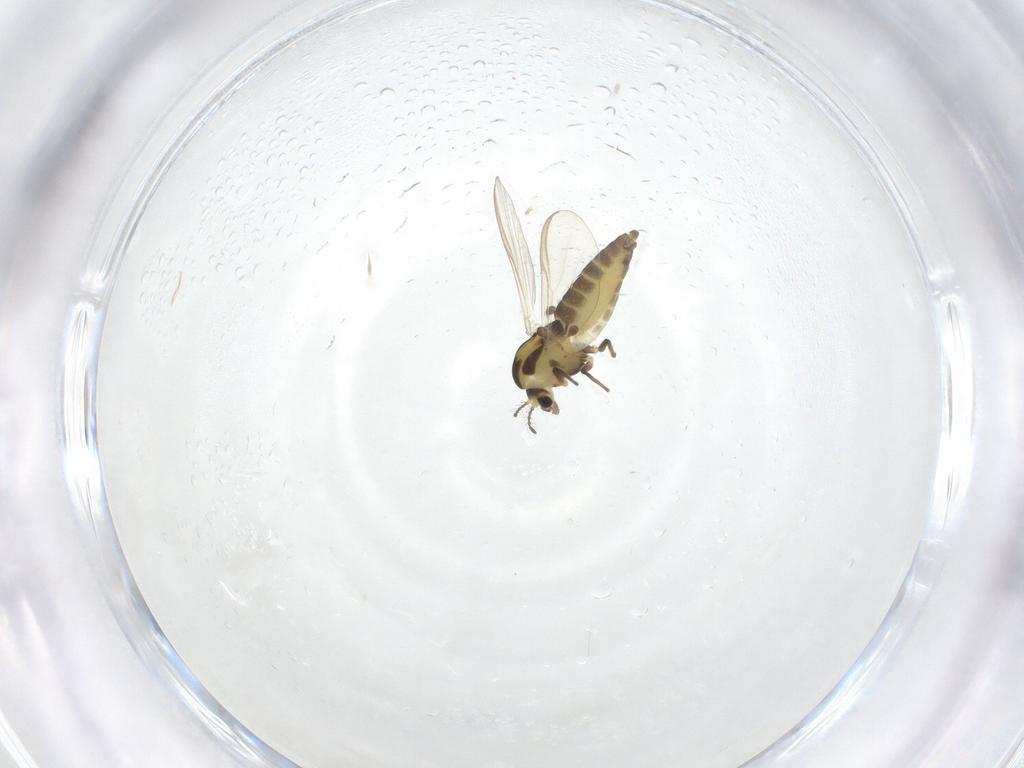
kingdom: Animalia
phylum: Arthropoda
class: Insecta
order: Diptera
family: Chironomidae
